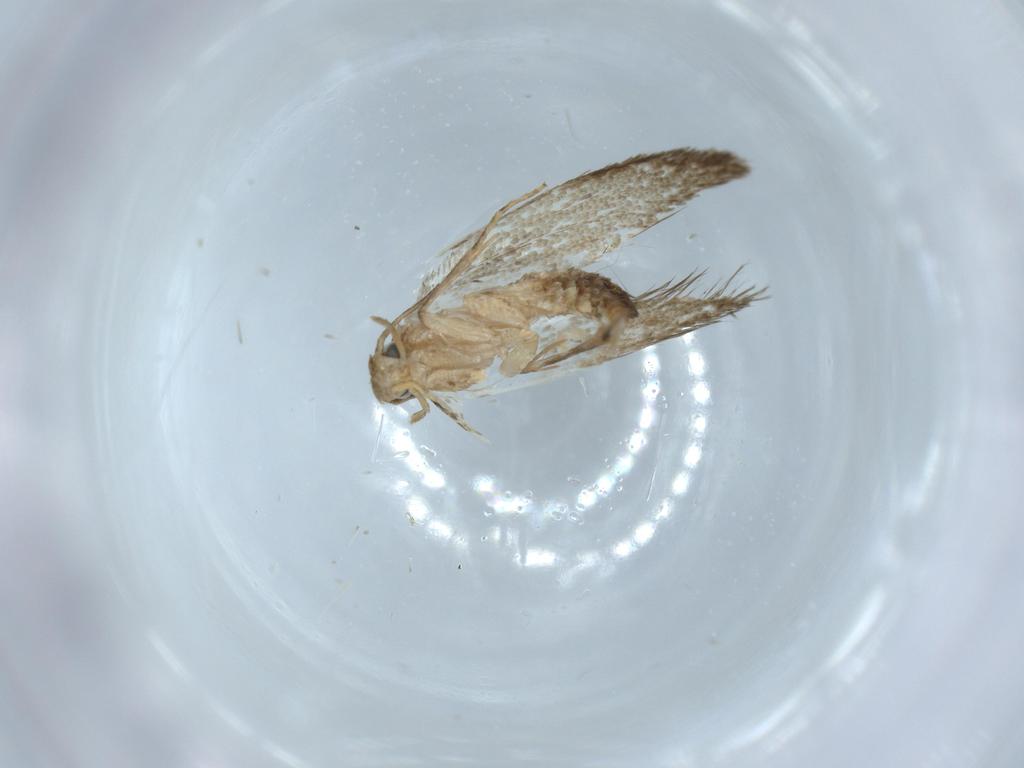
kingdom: Animalia
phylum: Arthropoda
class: Insecta
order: Lepidoptera
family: Tineidae
